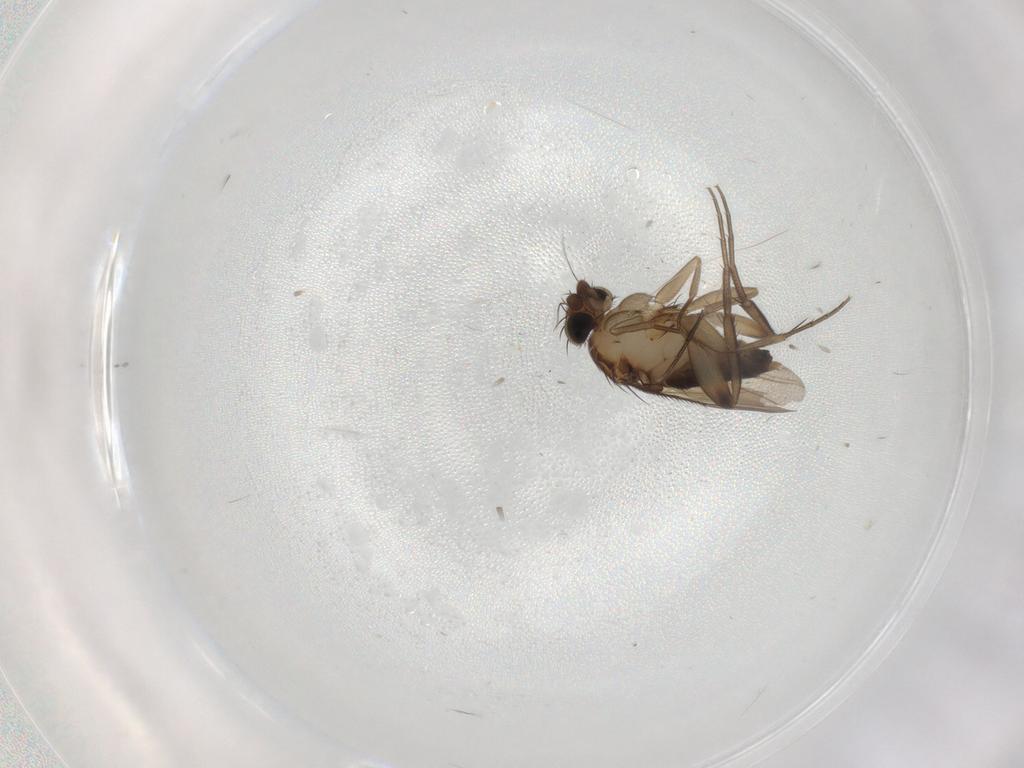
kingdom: Animalia
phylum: Arthropoda
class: Insecta
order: Diptera
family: Phoridae
